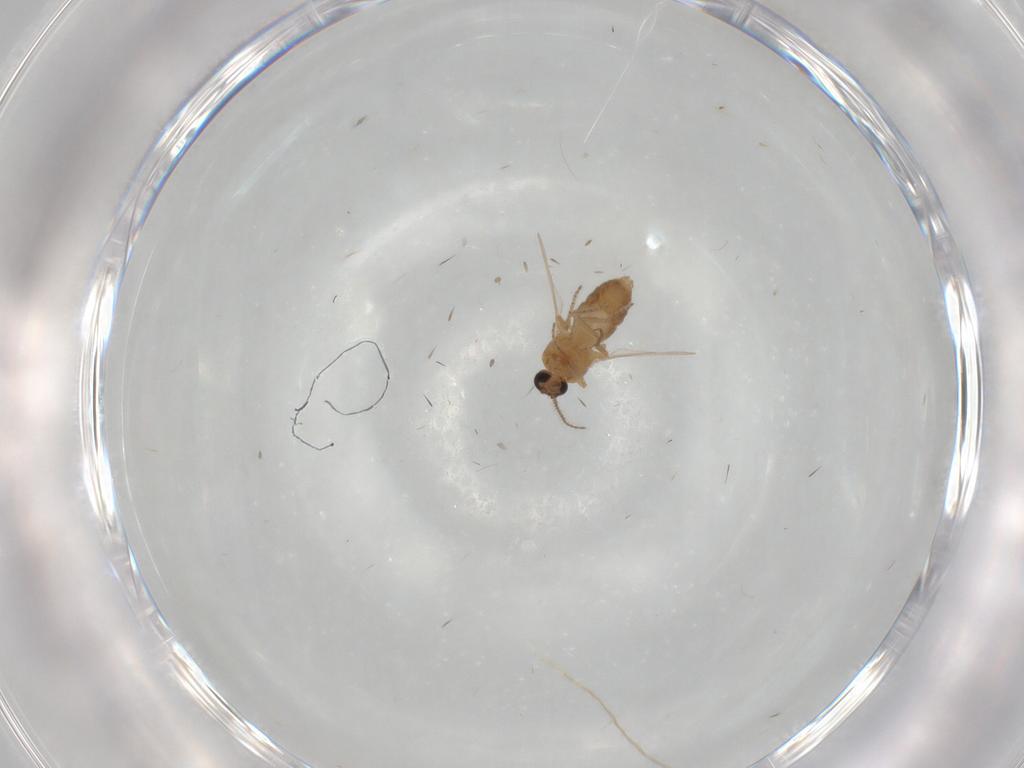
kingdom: Animalia
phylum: Arthropoda
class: Insecta
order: Diptera
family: Ceratopogonidae
